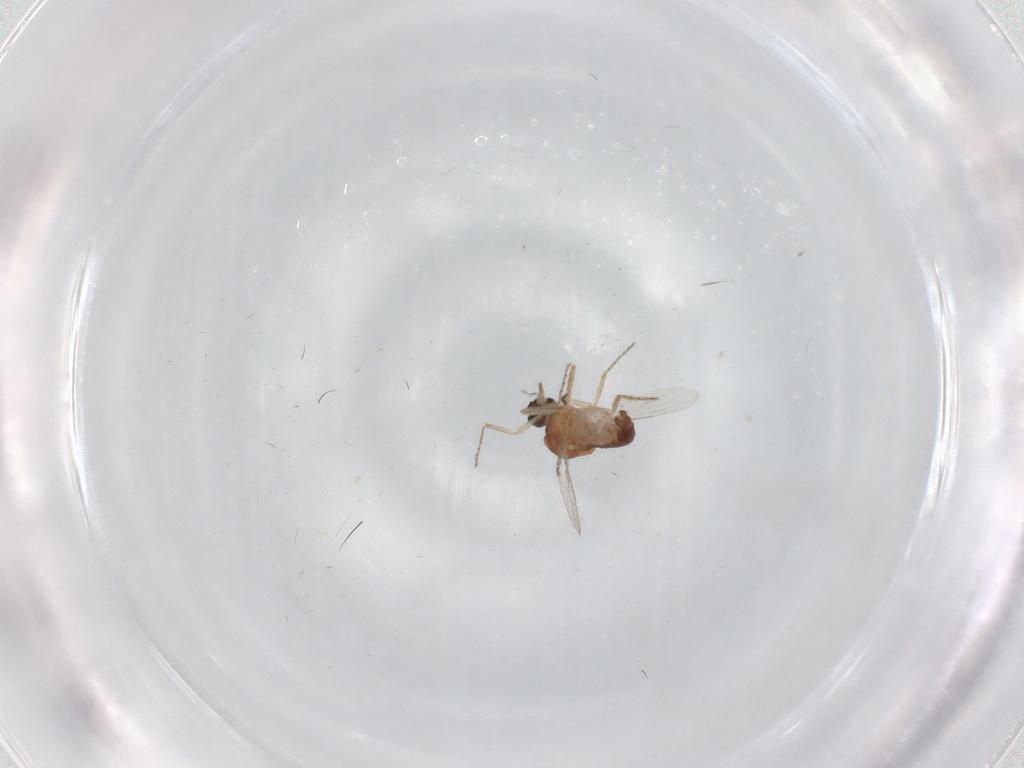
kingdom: Animalia
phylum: Arthropoda
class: Insecta
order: Diptera
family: Ceratopogonidae
